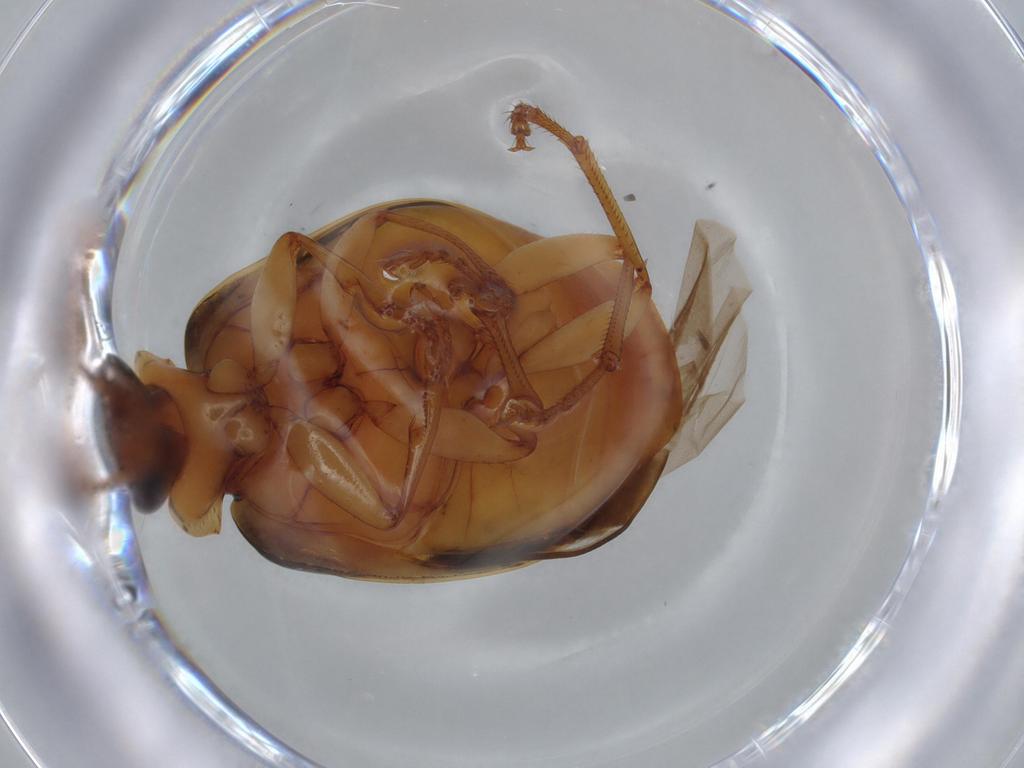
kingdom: Animalia
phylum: Arthropoda
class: Insecta
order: Coleoptera
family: Carabidae
